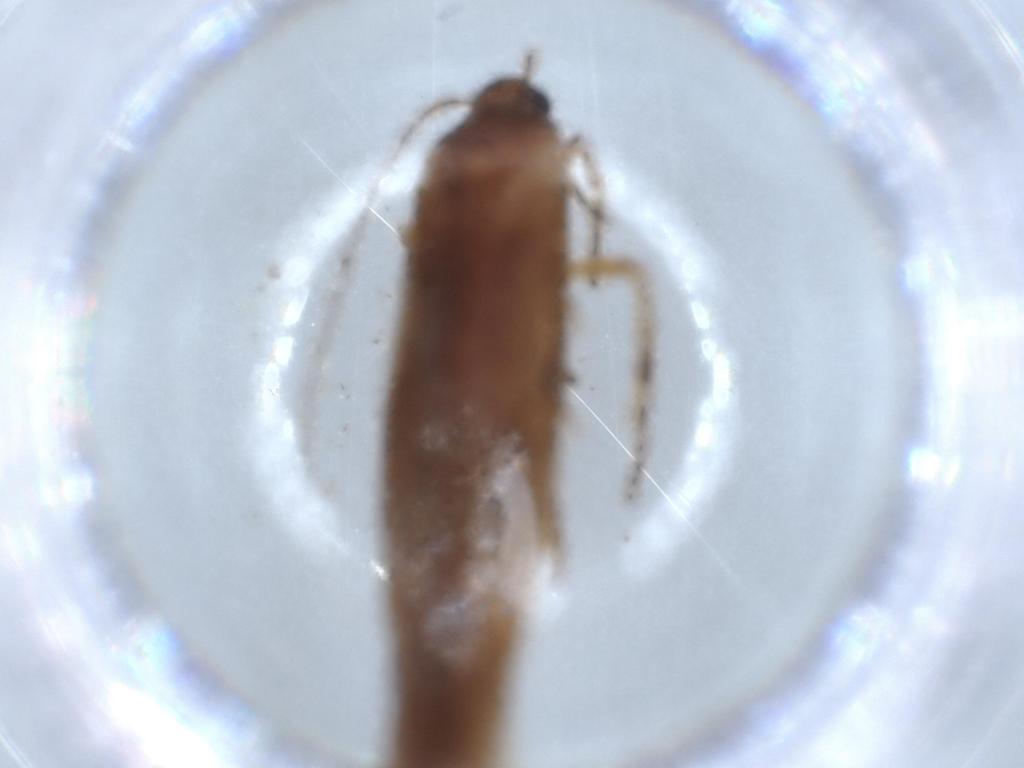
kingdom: Animalia
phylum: Arthropoda
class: Insecta
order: Lepidoptera
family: Stathmopodidae
